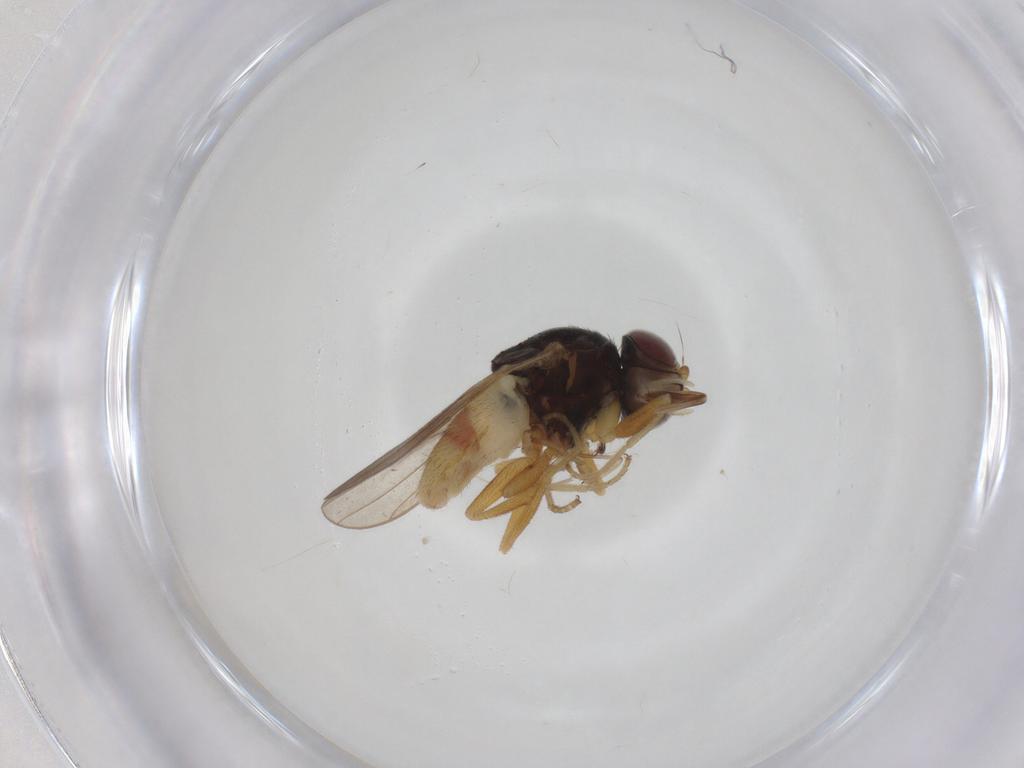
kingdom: Animalia
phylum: Arthropoda
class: Insecta
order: Diptera
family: Chloropidae
